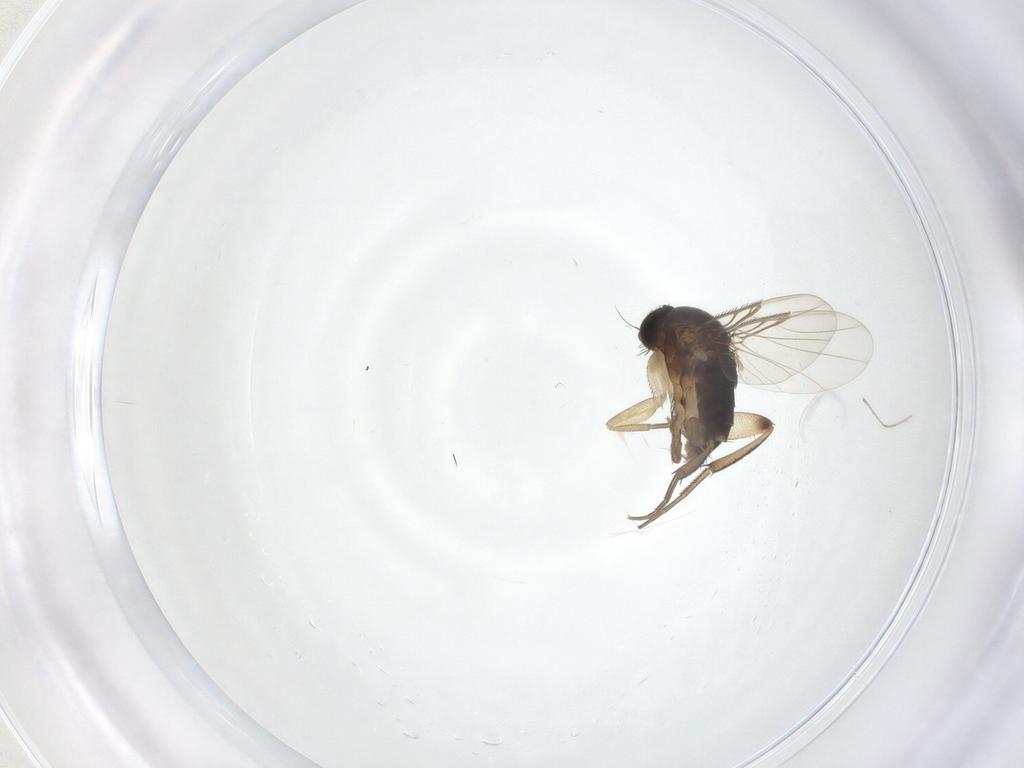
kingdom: Animalia
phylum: Arthropoda
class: Insecta
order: Diptera
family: Phoridae
